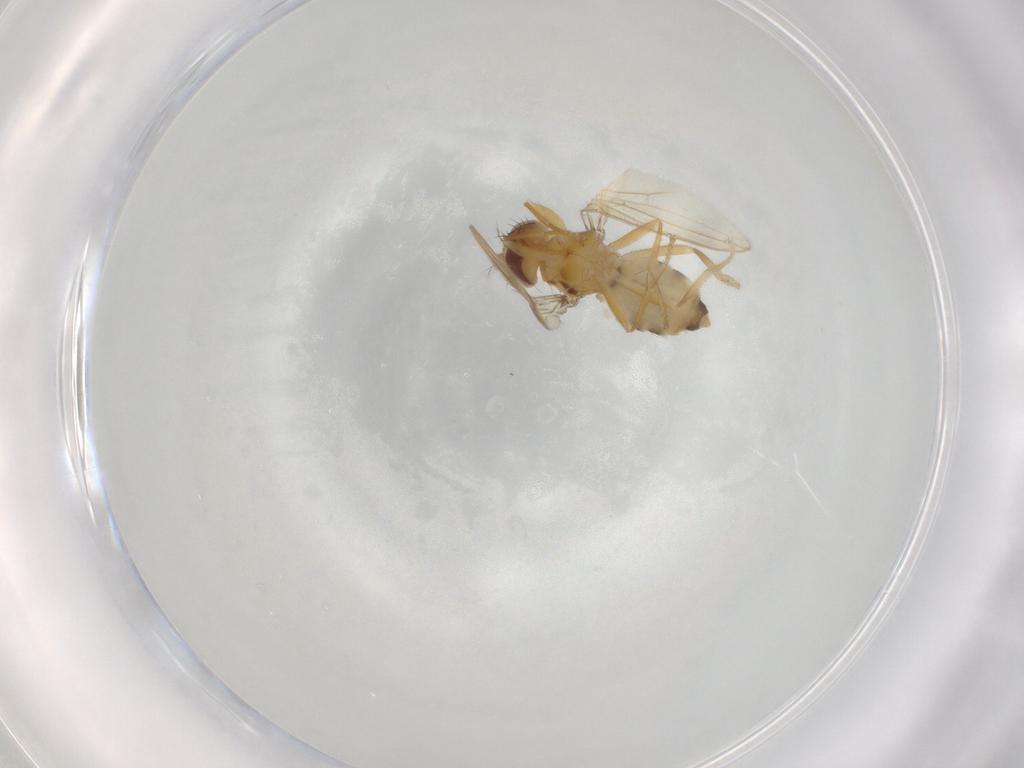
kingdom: Animalia
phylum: Arthropoda
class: Insecta
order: Diptera
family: Periscelididae
